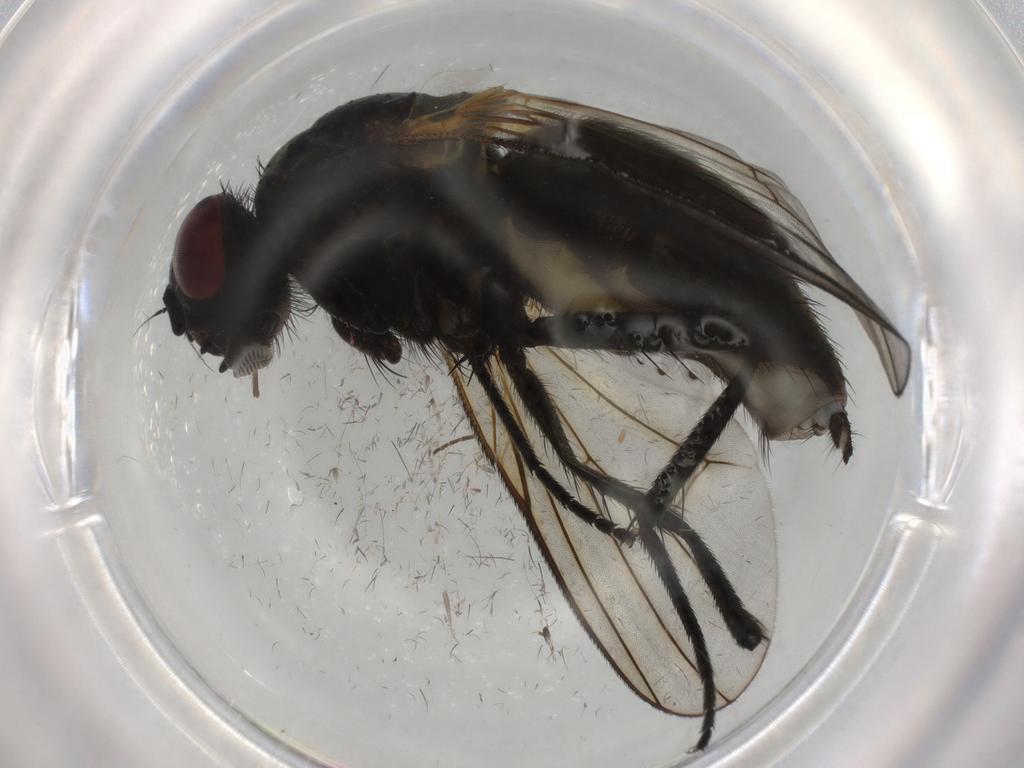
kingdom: Animalia
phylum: Arthropoda
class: Insecta
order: Diptera
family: Muscidae
